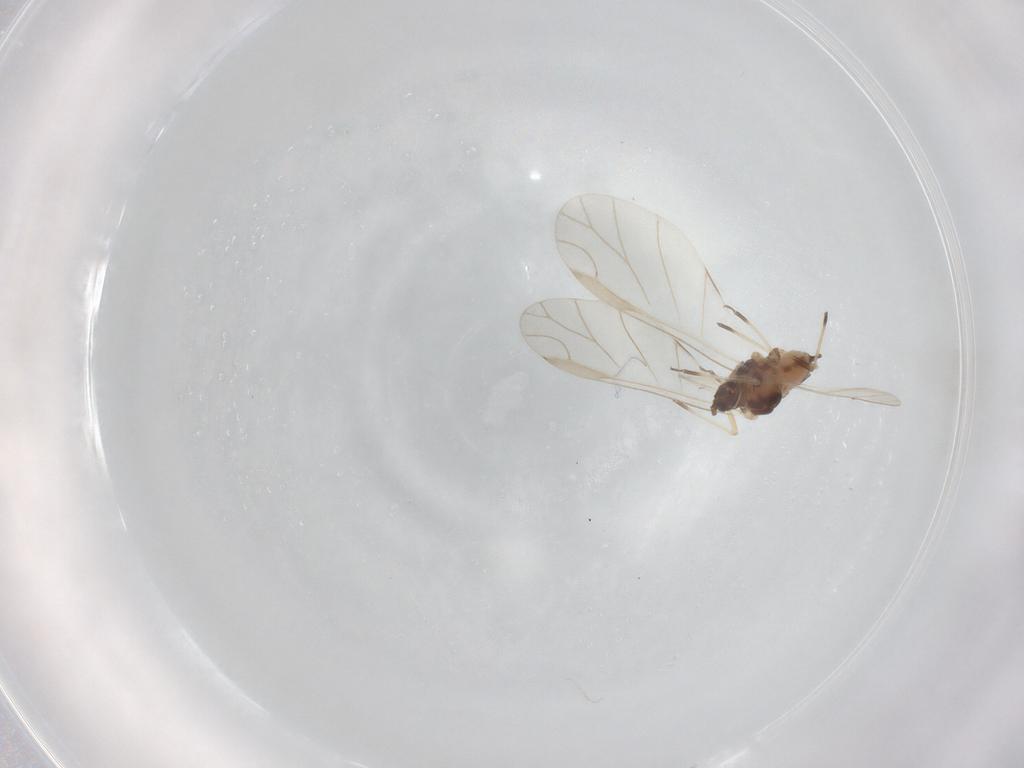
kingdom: Animalia
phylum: Arthropoda
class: Insecta
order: Hemiptera
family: Aphididae
